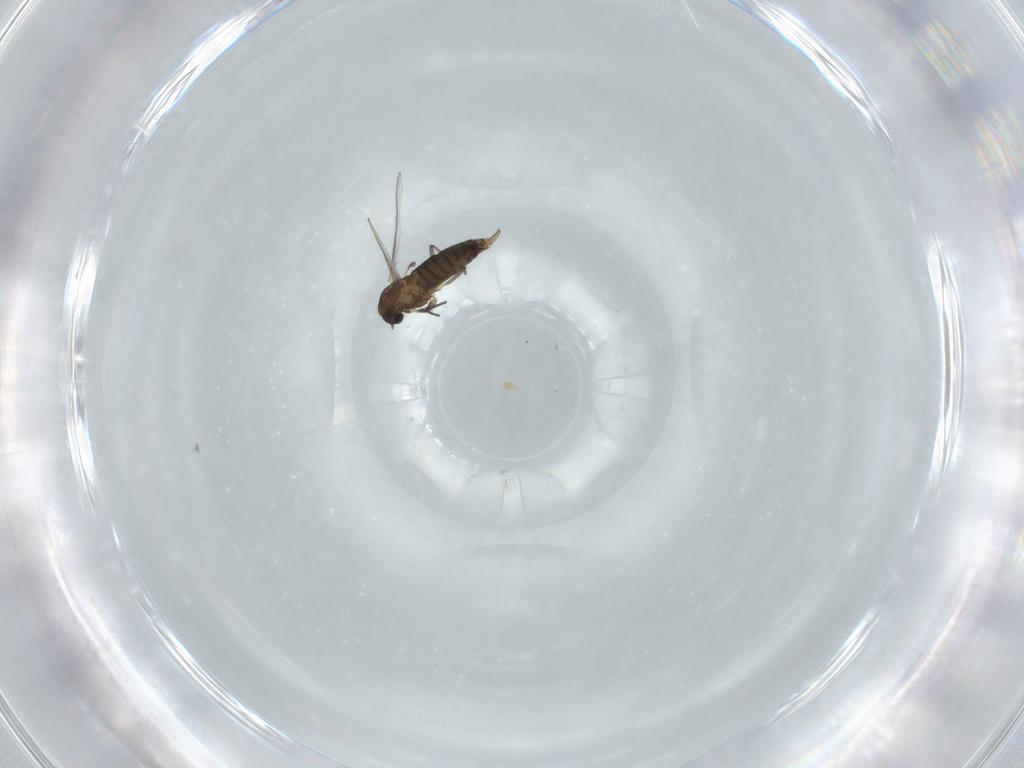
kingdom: Animalia
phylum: Arthropoda
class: Insecta
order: Diptera
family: Chironomidae
